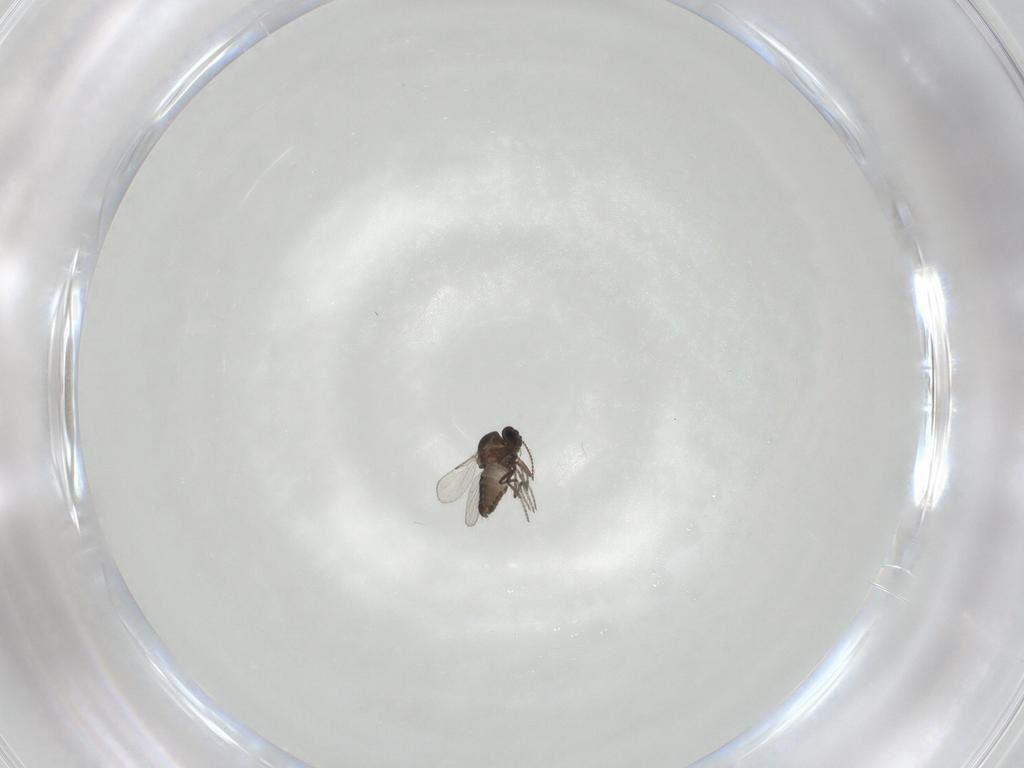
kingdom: Animalia
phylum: Arthropoda
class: Insecta
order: Diptera
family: Ceratopogonidae
